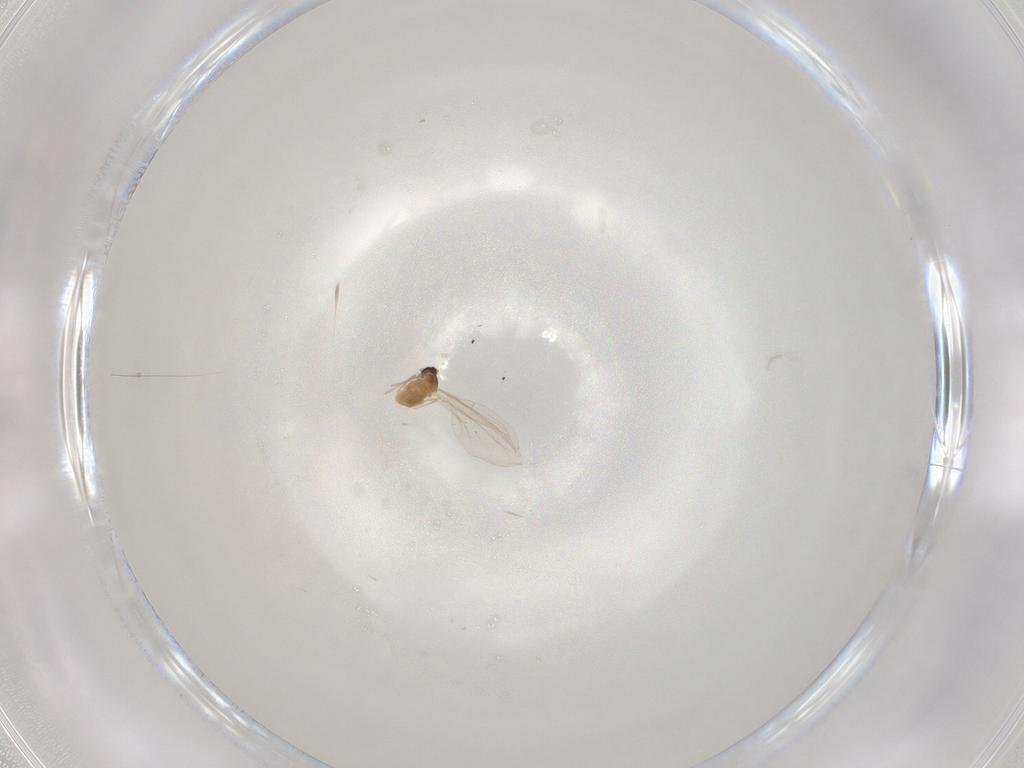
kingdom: Animalia
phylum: Arthropoda
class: Insecta
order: Diptera
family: Cecidomyiidae
